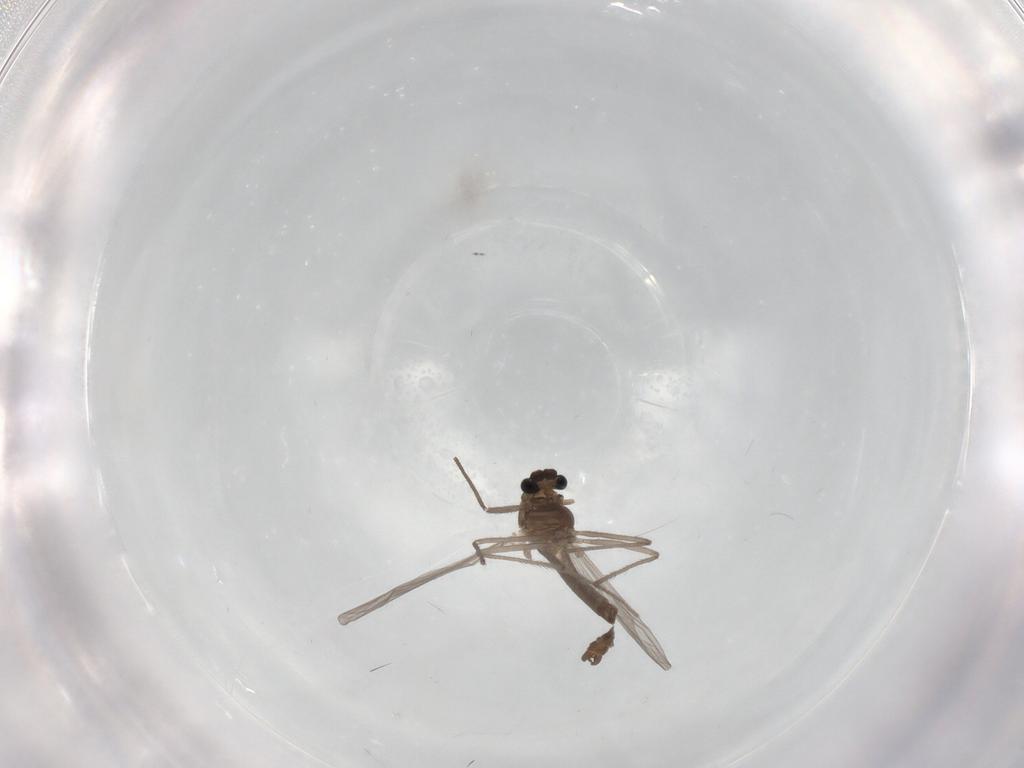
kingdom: Animalia
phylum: Arthropoda
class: Insecta
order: Diptera
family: Chironomidae
